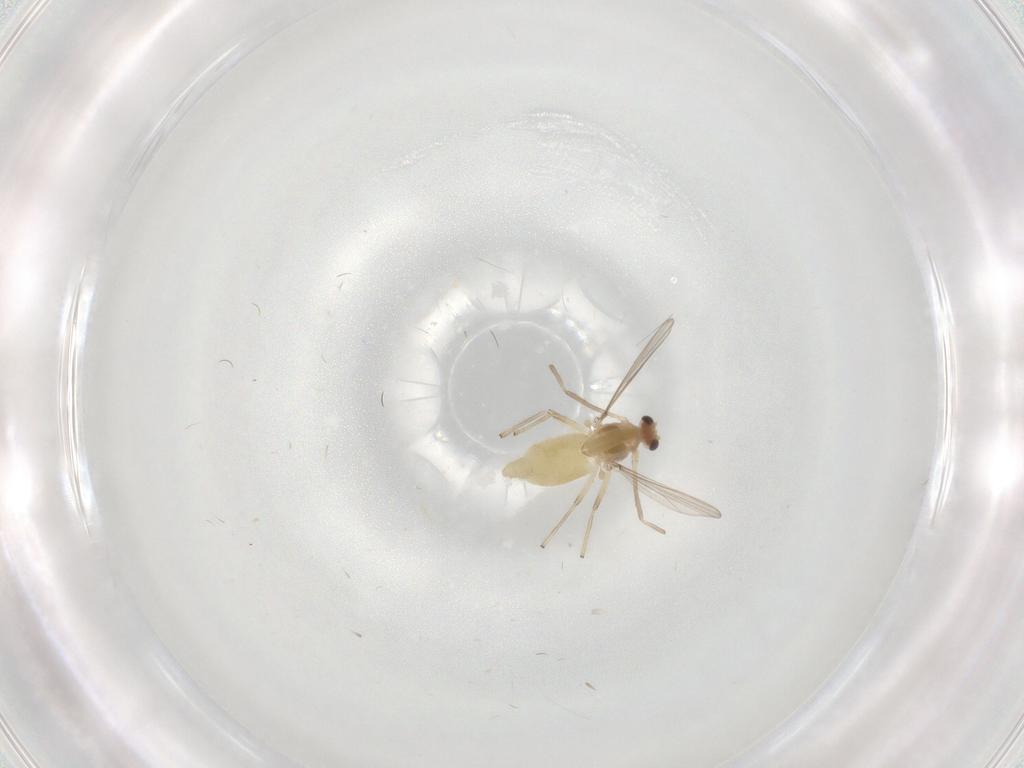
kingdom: Animalia
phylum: Arthropoda
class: Insecta
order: Diptera
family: Chironomidae
